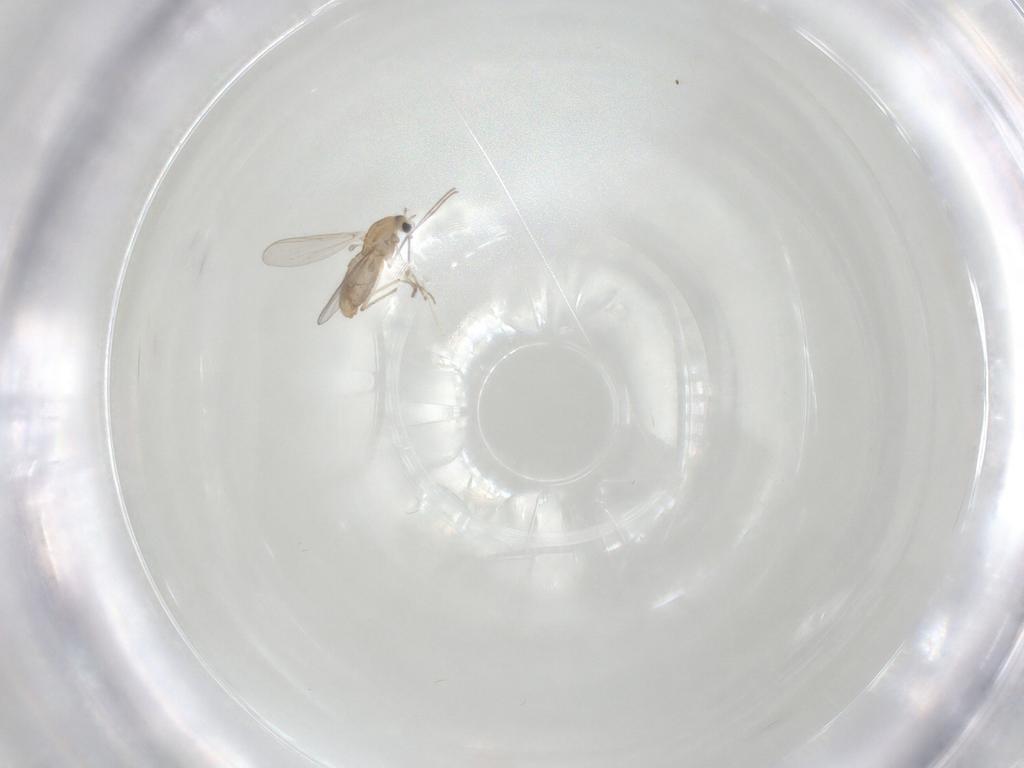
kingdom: Animalia
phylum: Arthropoda
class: Insecta
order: Diptera
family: Chironomidae
